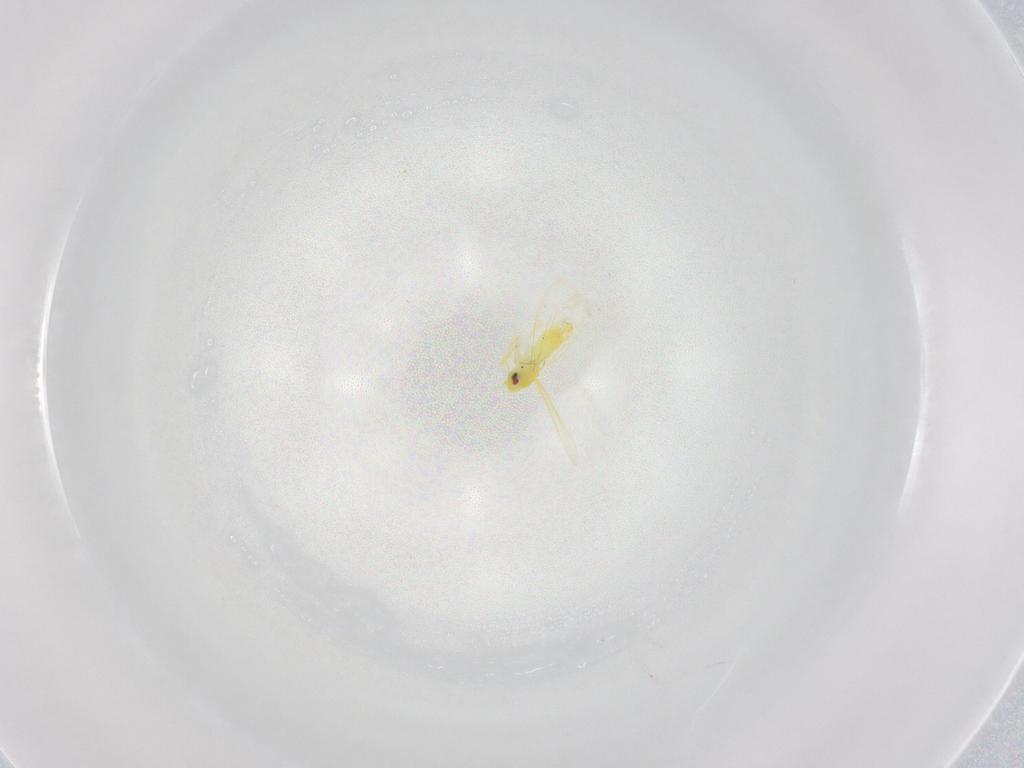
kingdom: Animalia
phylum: Arthropoda
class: Insecta
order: Hemiptera
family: Aleyrodidae
